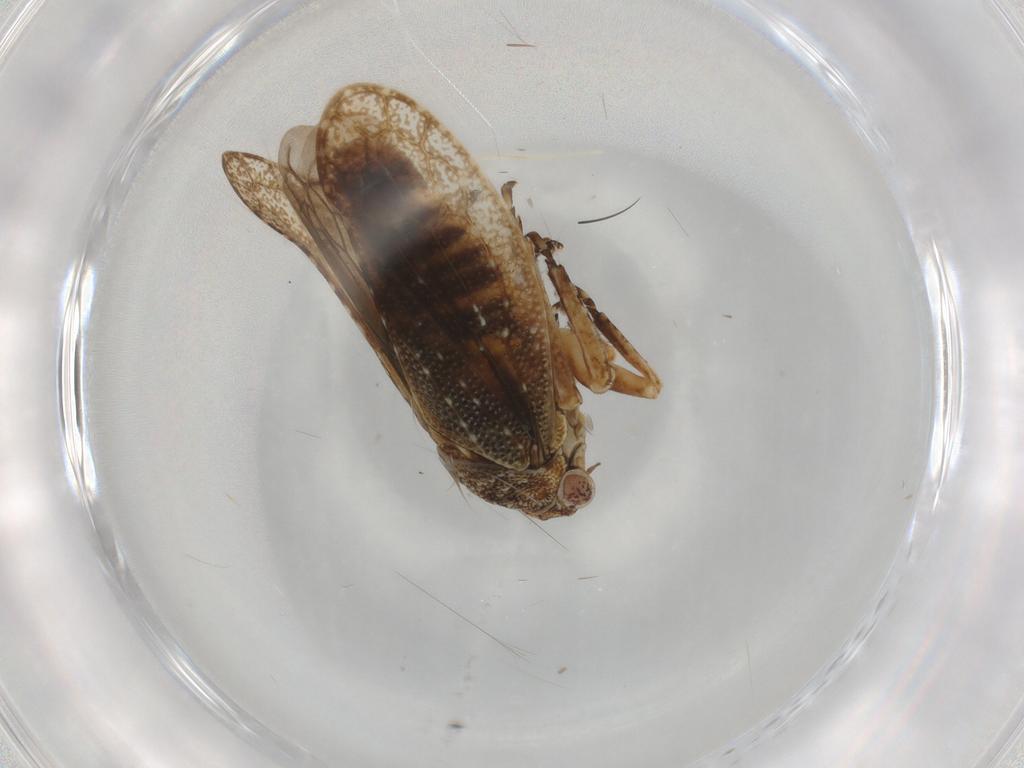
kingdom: Animalia
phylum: Arthropoda
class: Insecta
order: Hemiptera
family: Cicadellidae
